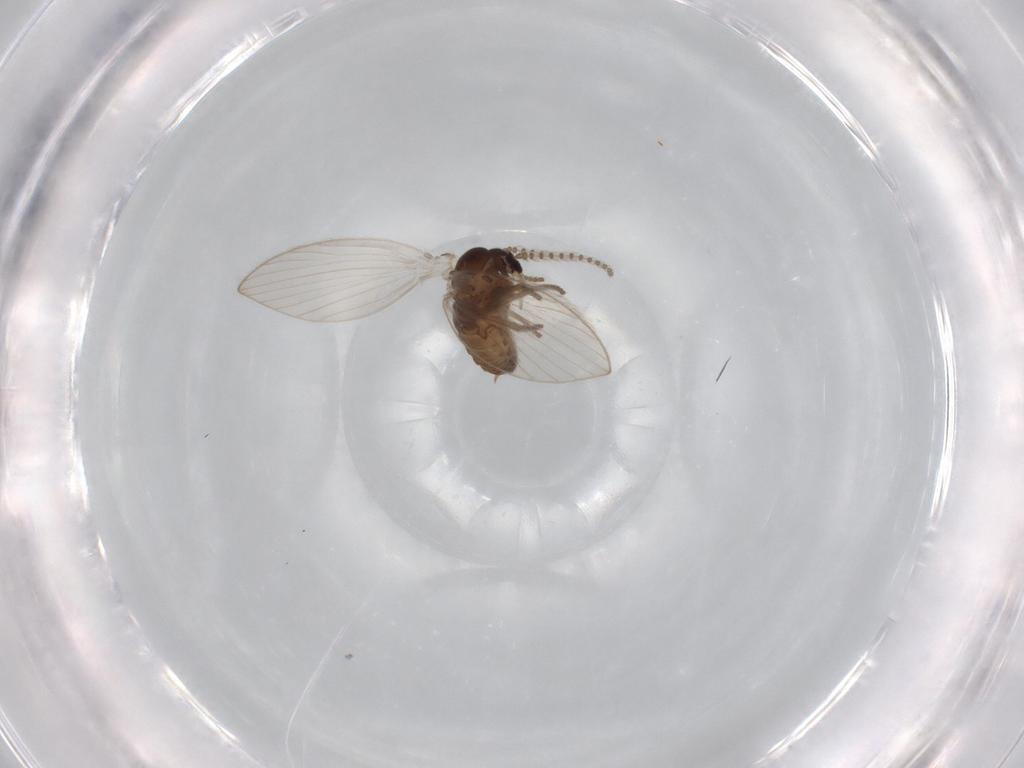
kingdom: Animalia
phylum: Arthropoda
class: Insecta
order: Diptera
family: Psychodidae
